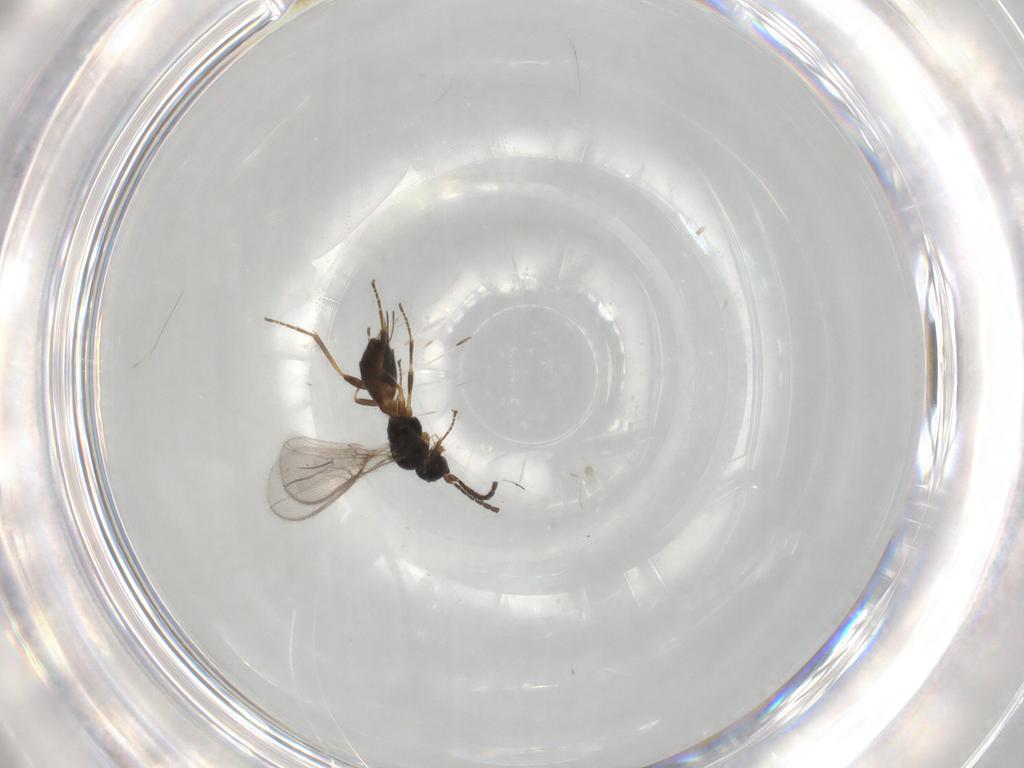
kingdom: Animalia
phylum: Arthropoda
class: Insecta
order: Hymenoptera
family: Braconidae
